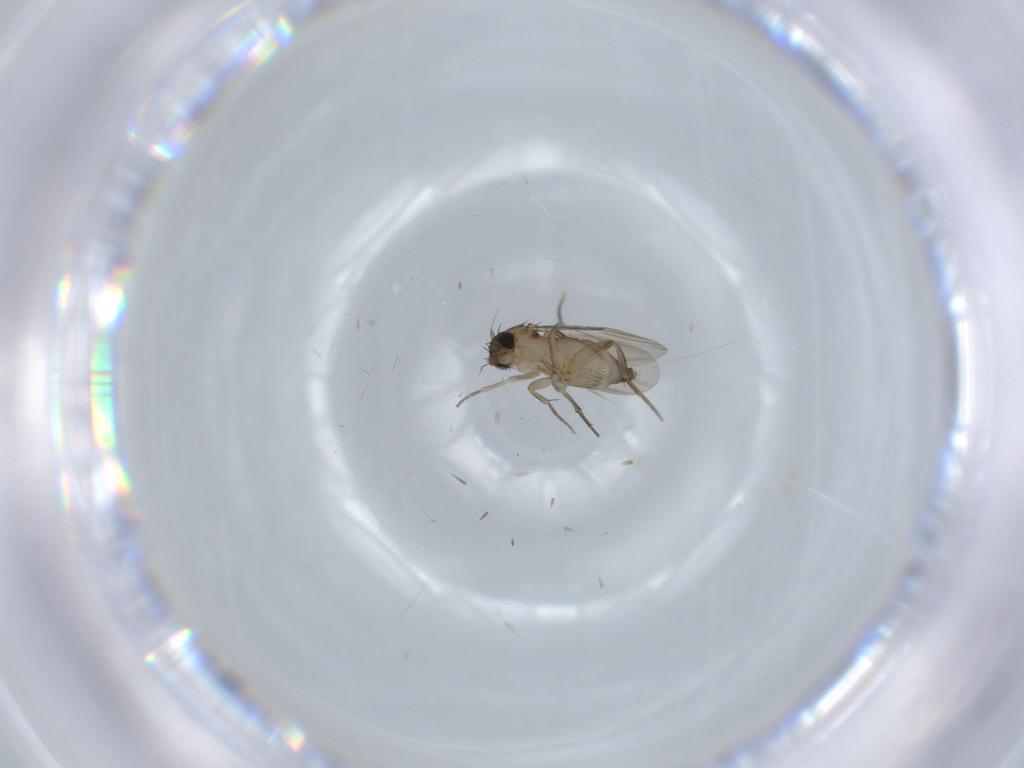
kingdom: Animalia
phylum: Arthropoda
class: Insecta
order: Diptera
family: Phoridae
